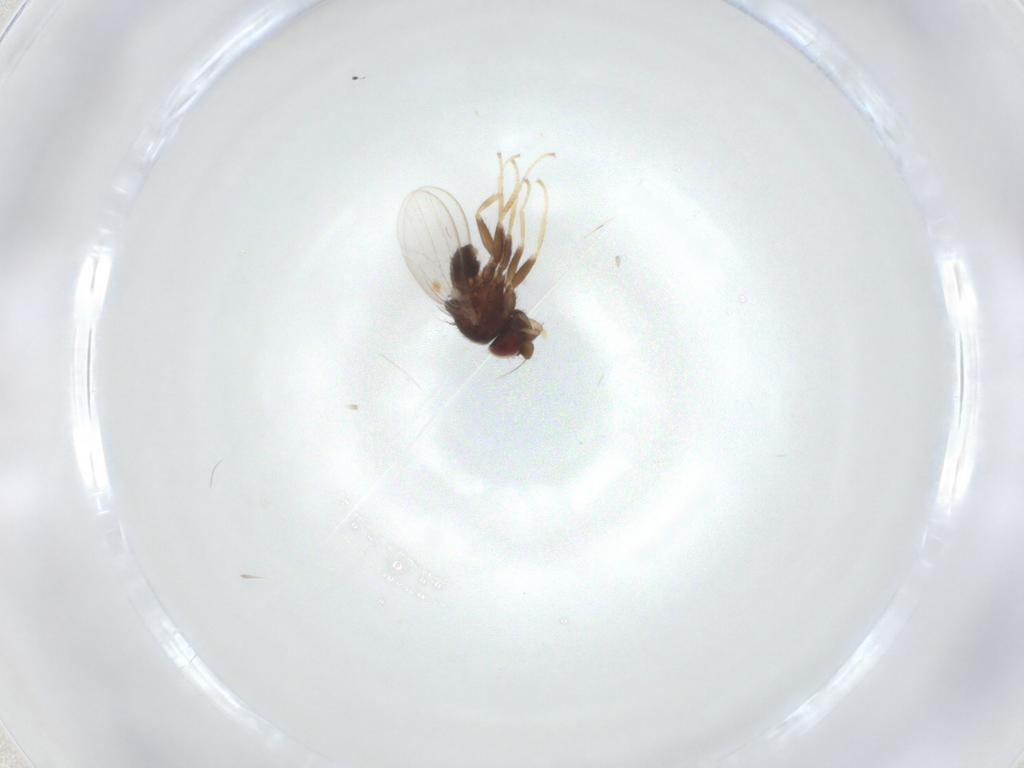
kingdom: Animalia
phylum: Arthropoda
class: Insecta
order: Diptera
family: Milichiidae
